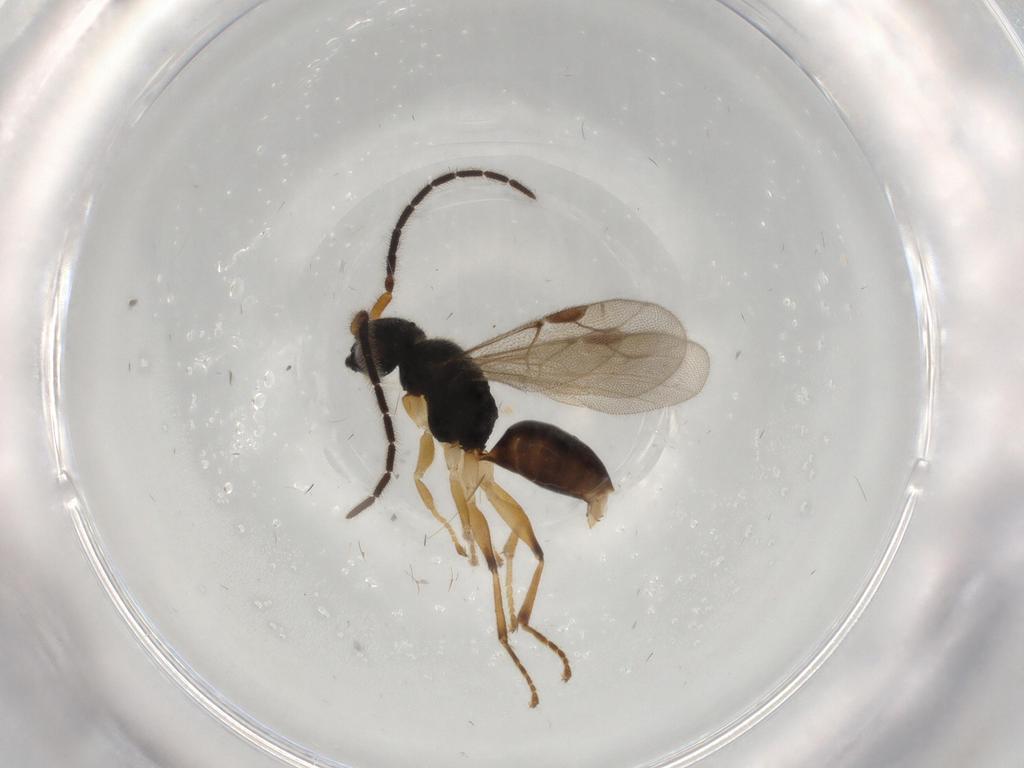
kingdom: Animalia
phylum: Arthropoda
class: Insecta
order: Hymenoptera
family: Dryinidae
